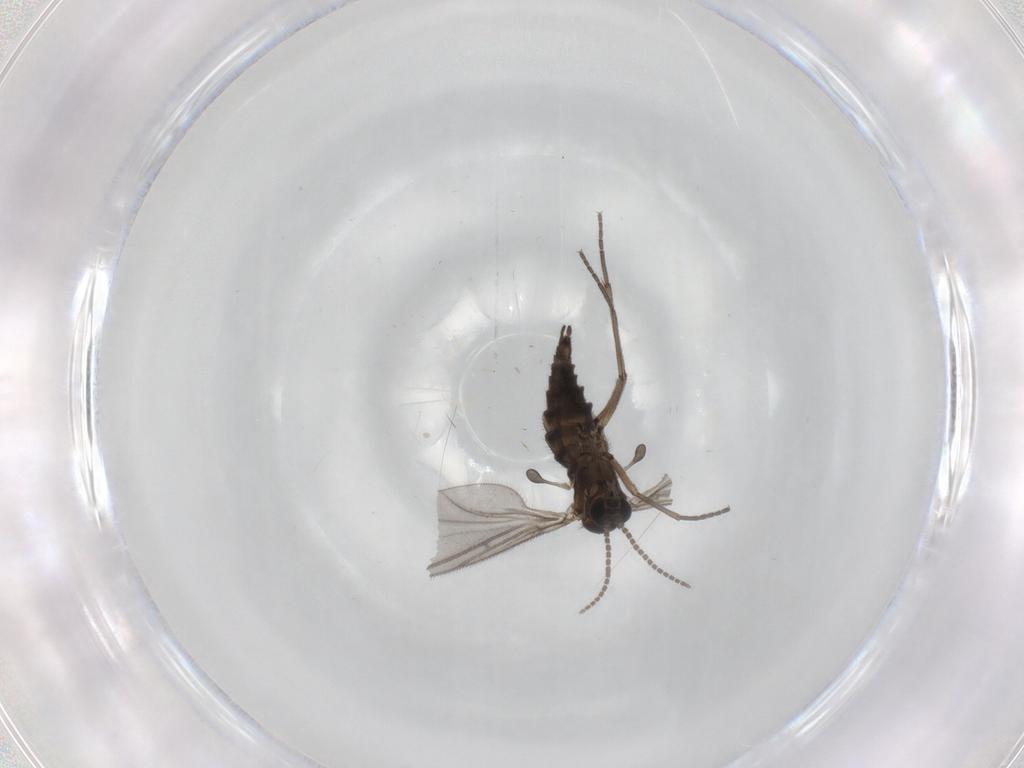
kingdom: Animalia
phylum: Arthropoda
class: Insecta
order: Diptera
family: Sciaridae
